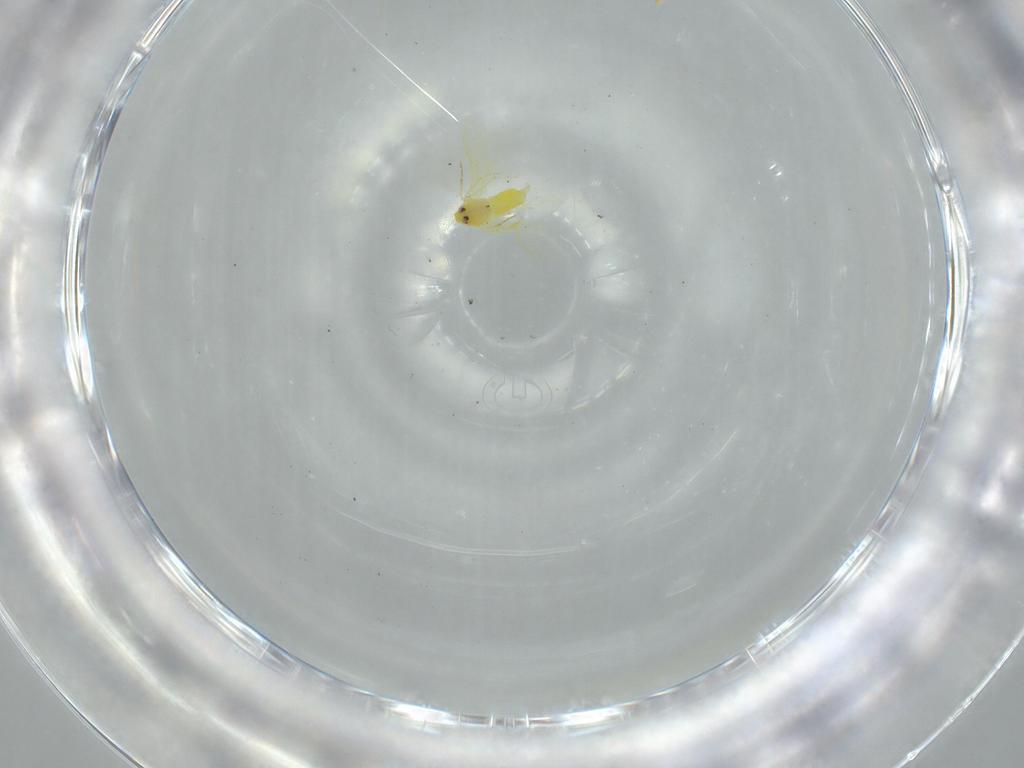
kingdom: Animalia
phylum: Arthropoda
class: Insecta
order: Hemiptera
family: Aleyrodidae
